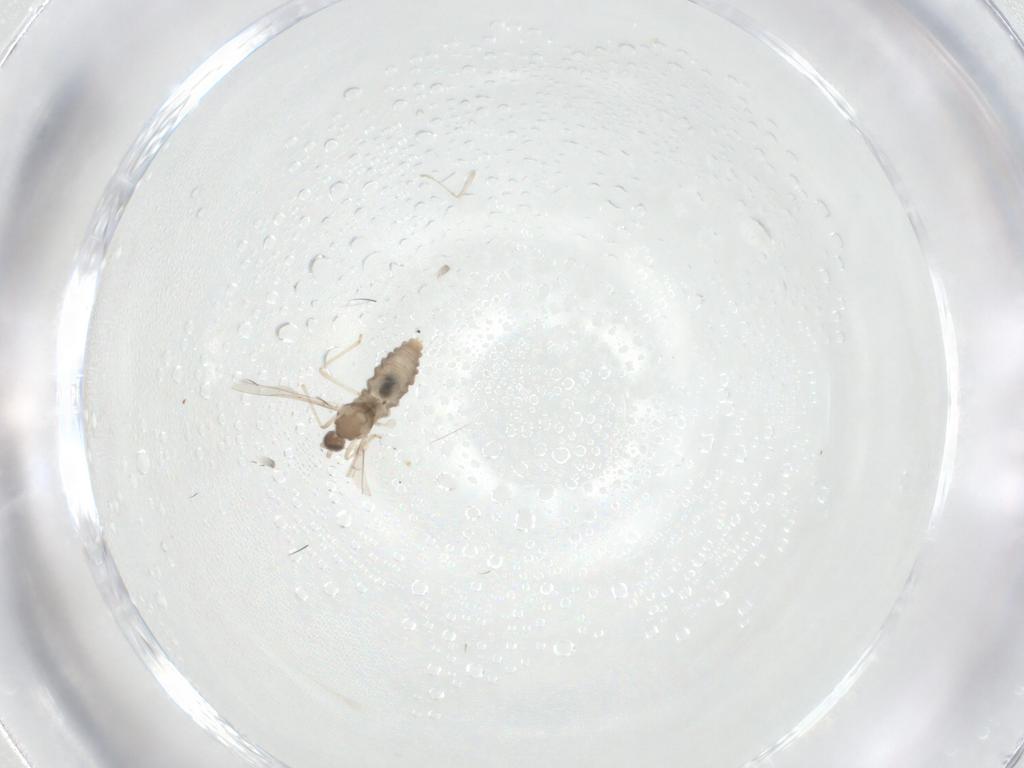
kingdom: Animalia
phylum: Arthropoda
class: Insecta
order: Diptera
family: Cecidomyiidae
